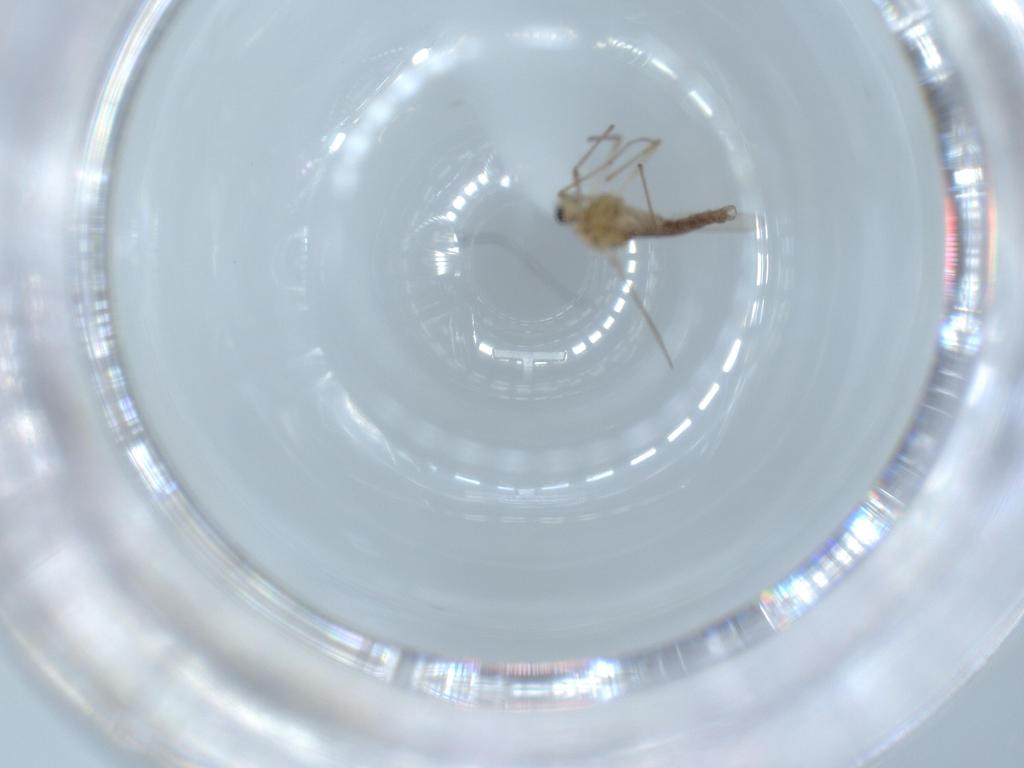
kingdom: Animalia
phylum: Arthropoda
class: Insecta
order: Diptera
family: Chironomidae
